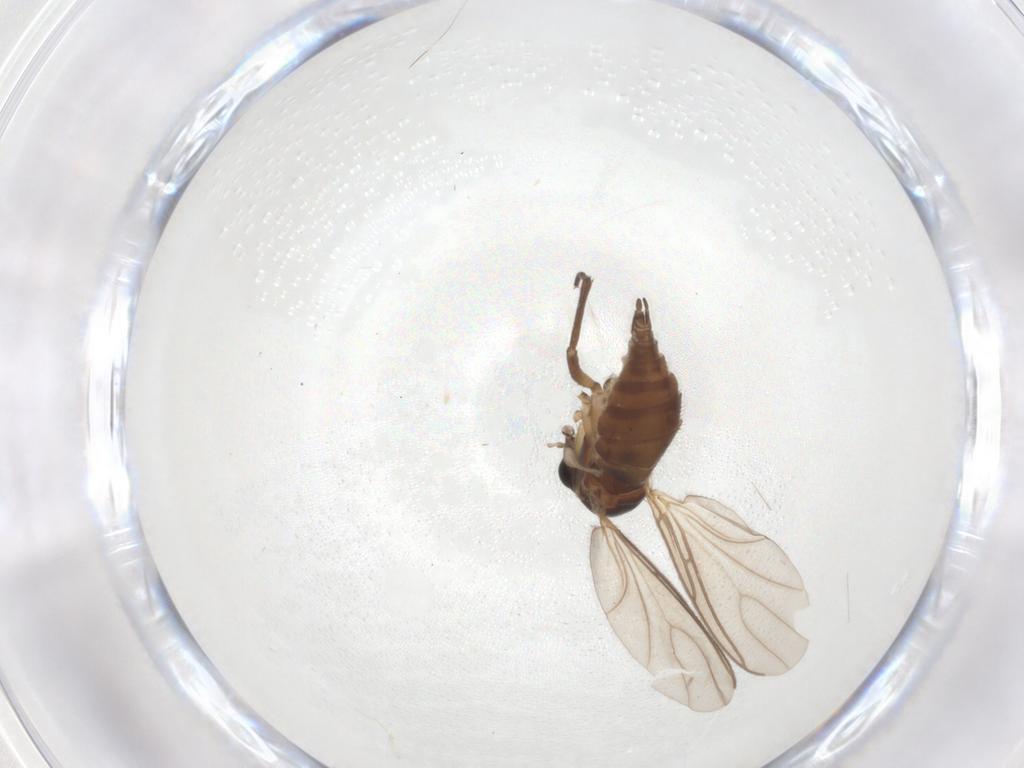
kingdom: Animalia
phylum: Arthropoda
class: Insecta
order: Diptera
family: Sciaridae
